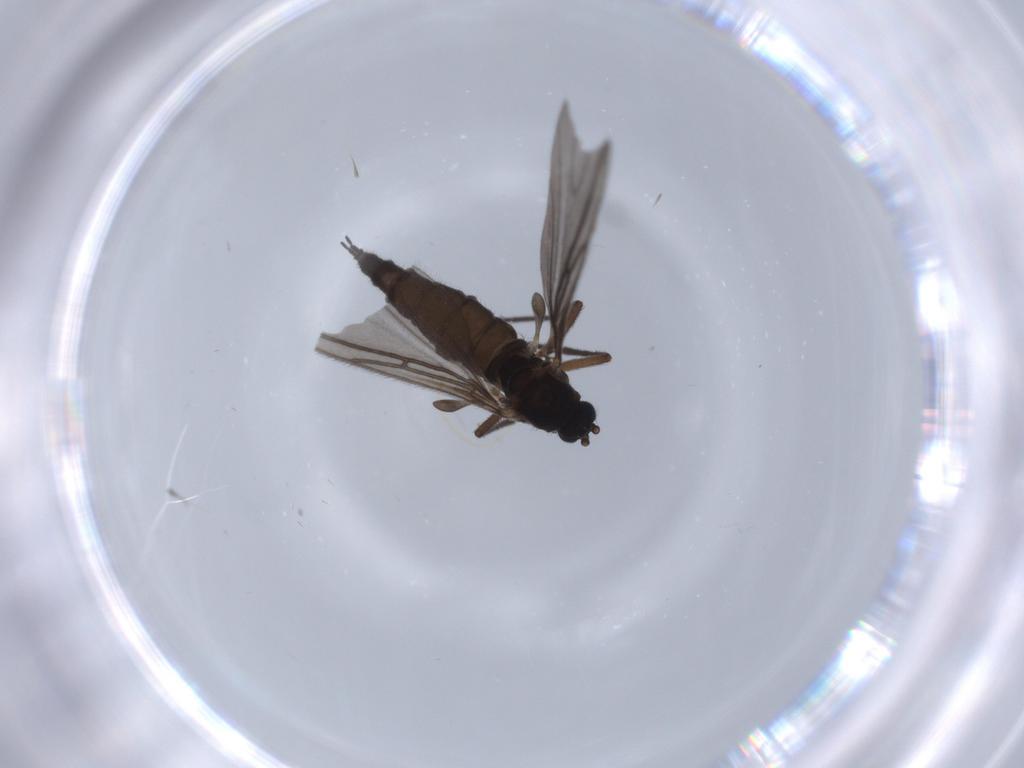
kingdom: Animalia
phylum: Arthropoda
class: Insecta
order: Diptera
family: Sciaridae
